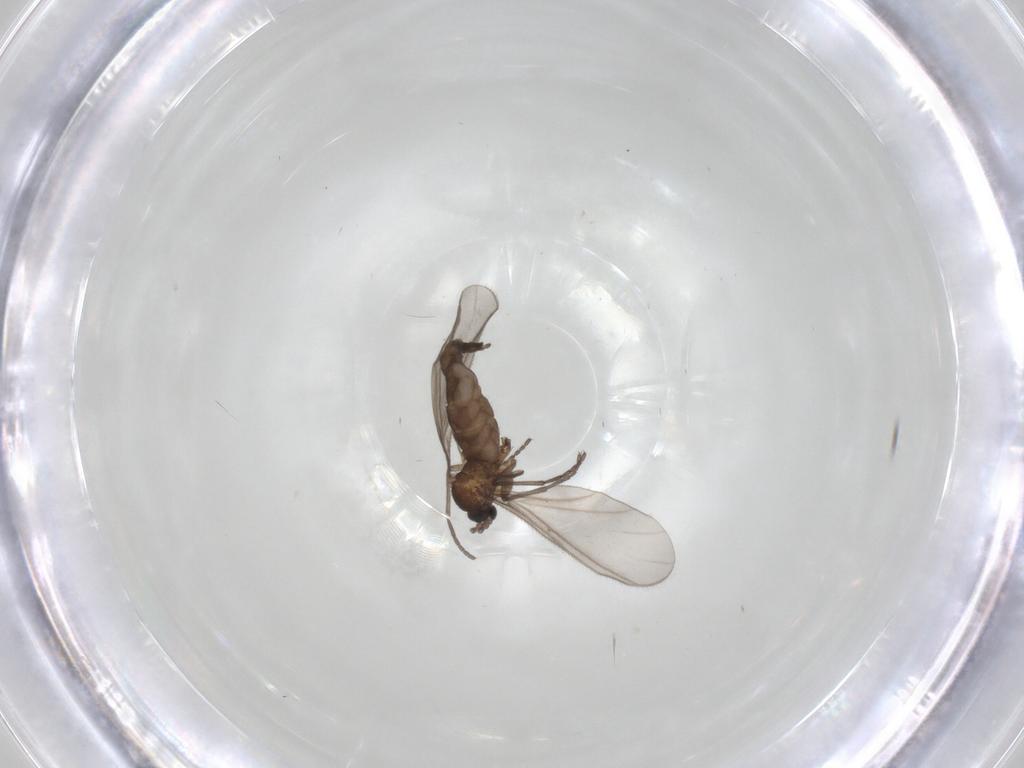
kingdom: Animalia
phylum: Arthropoda
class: Insecta
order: Diptera
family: Sciaridae
